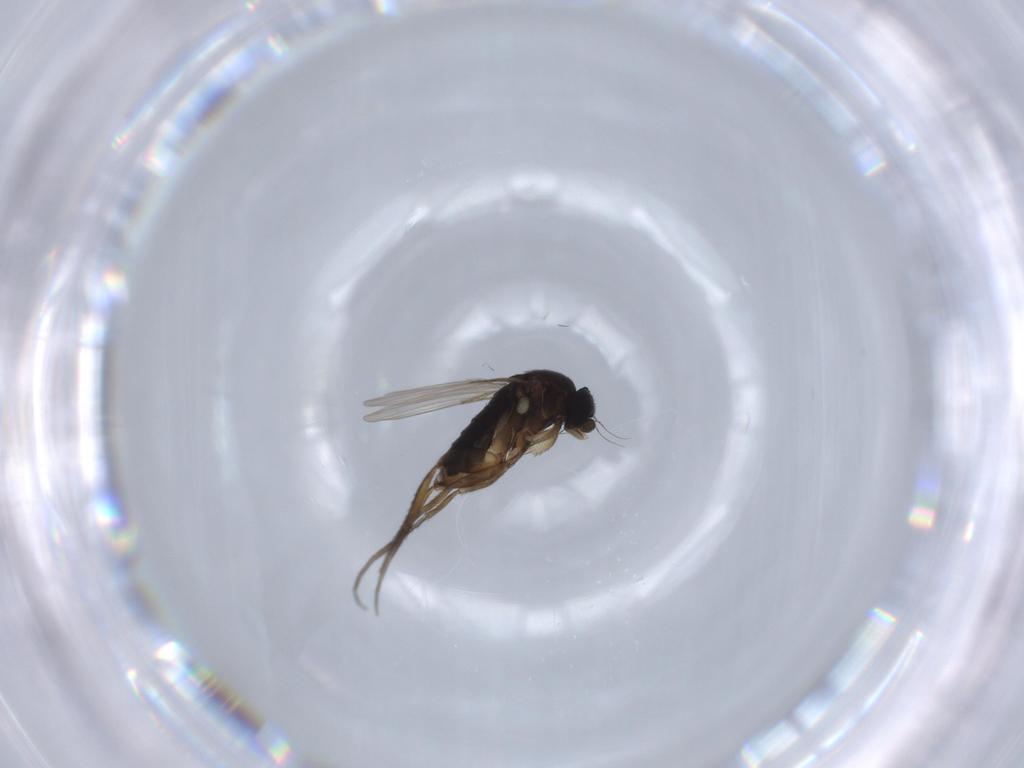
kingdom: Animalia
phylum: Arthropoda
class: Insecta
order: Diptera
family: Phoridae
